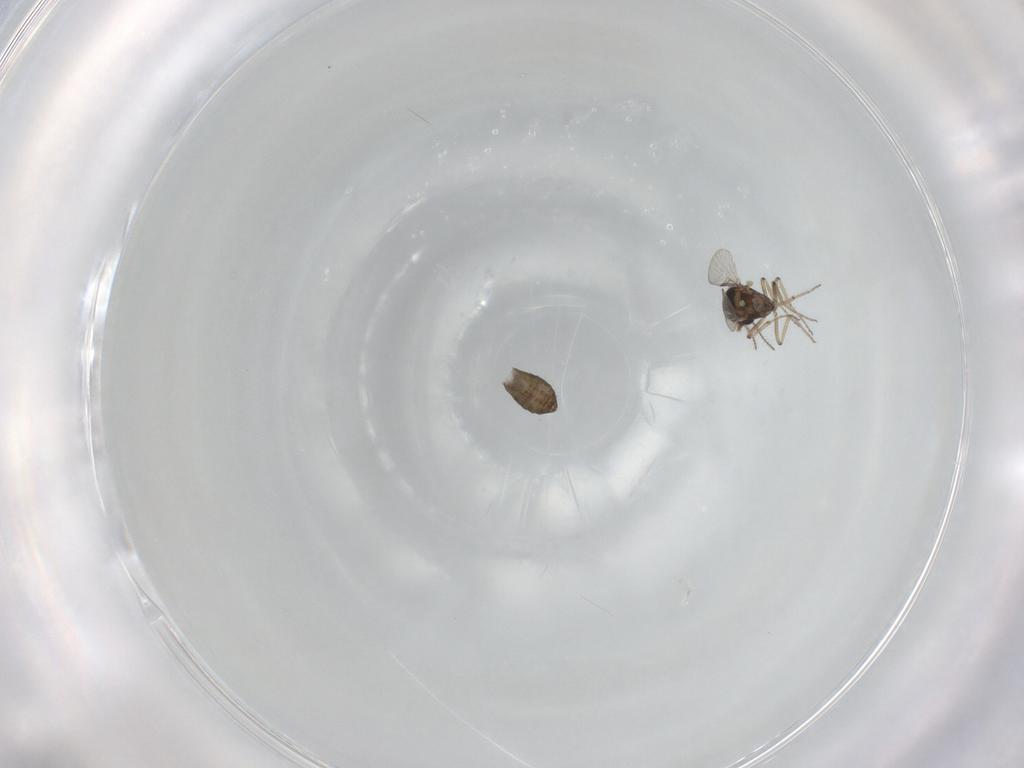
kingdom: Animalia
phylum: Arthropoda
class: Insecta
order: Diptera
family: Ceratopogonidae
